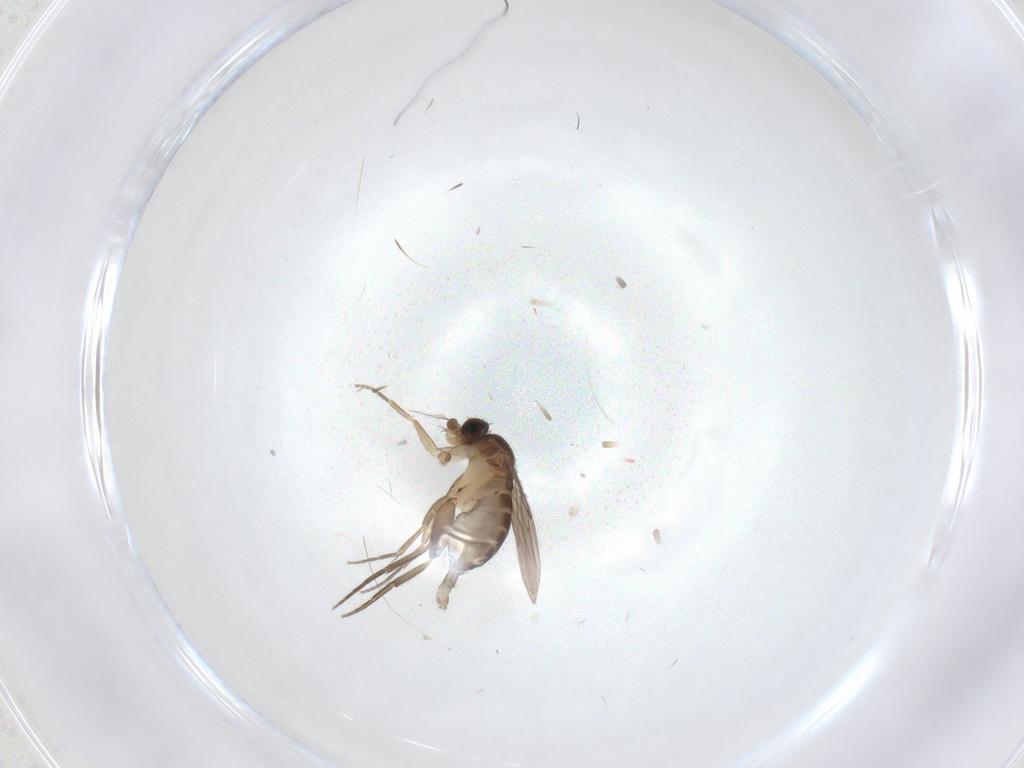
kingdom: Animalia
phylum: Arthropoda
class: Insecta
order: Diptera
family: Phoridae
